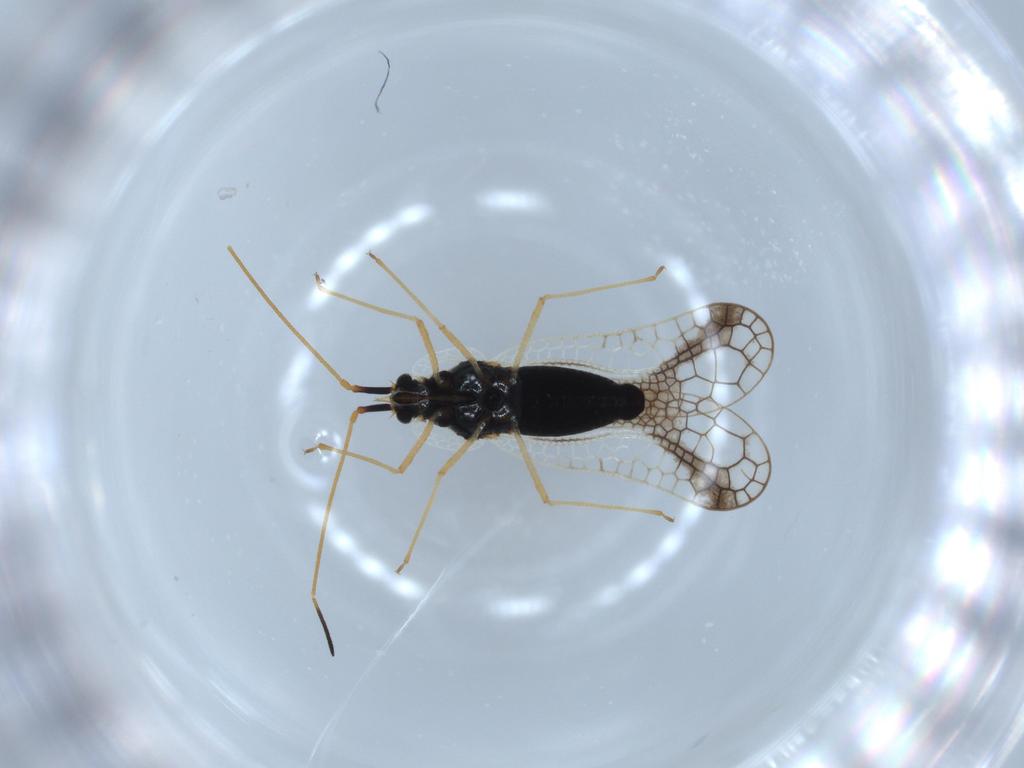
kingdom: Animalia
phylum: Arthropoda
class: Insecta
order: Hemiptera
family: Tingidae
